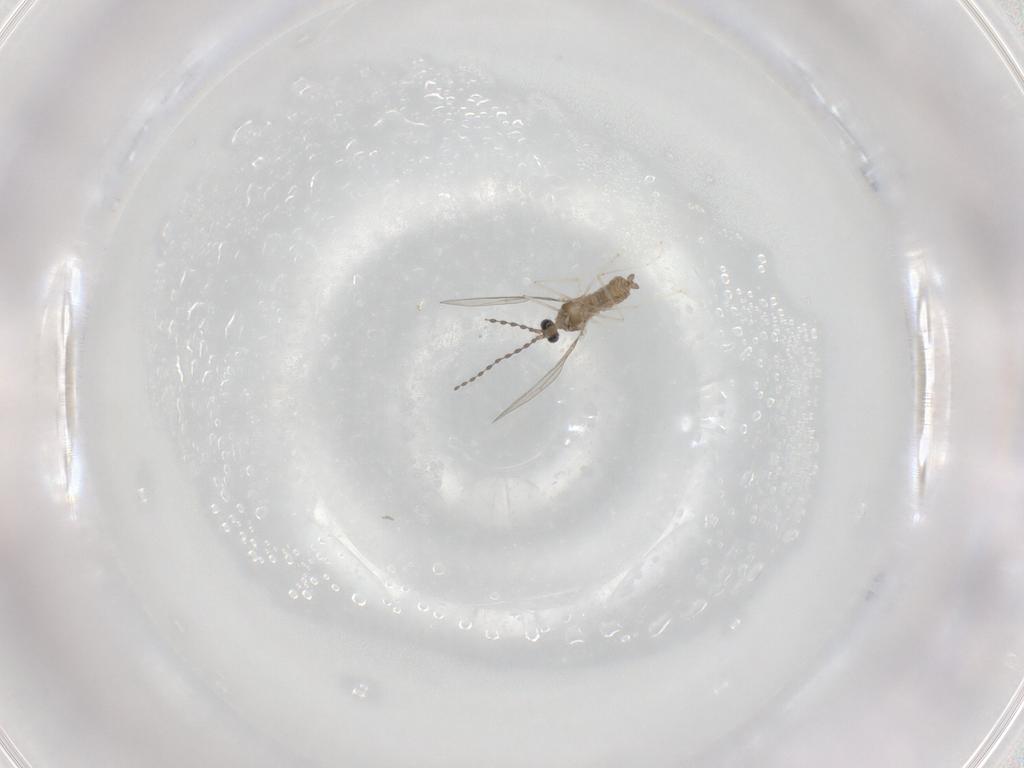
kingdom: Animalia
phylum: Arthropoda
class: Insecta
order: Diptera
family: Cecidomyiidae
